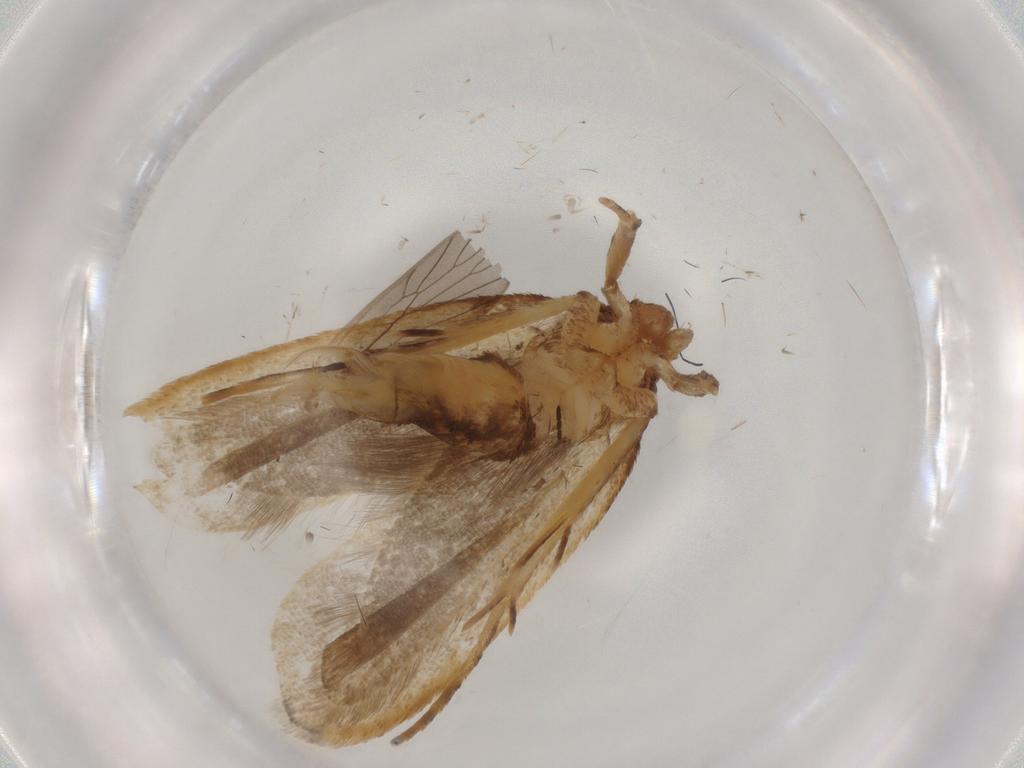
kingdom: Animalia
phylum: Arthropoda
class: Insecta
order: Lepidoptera
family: Lecithoceridae
